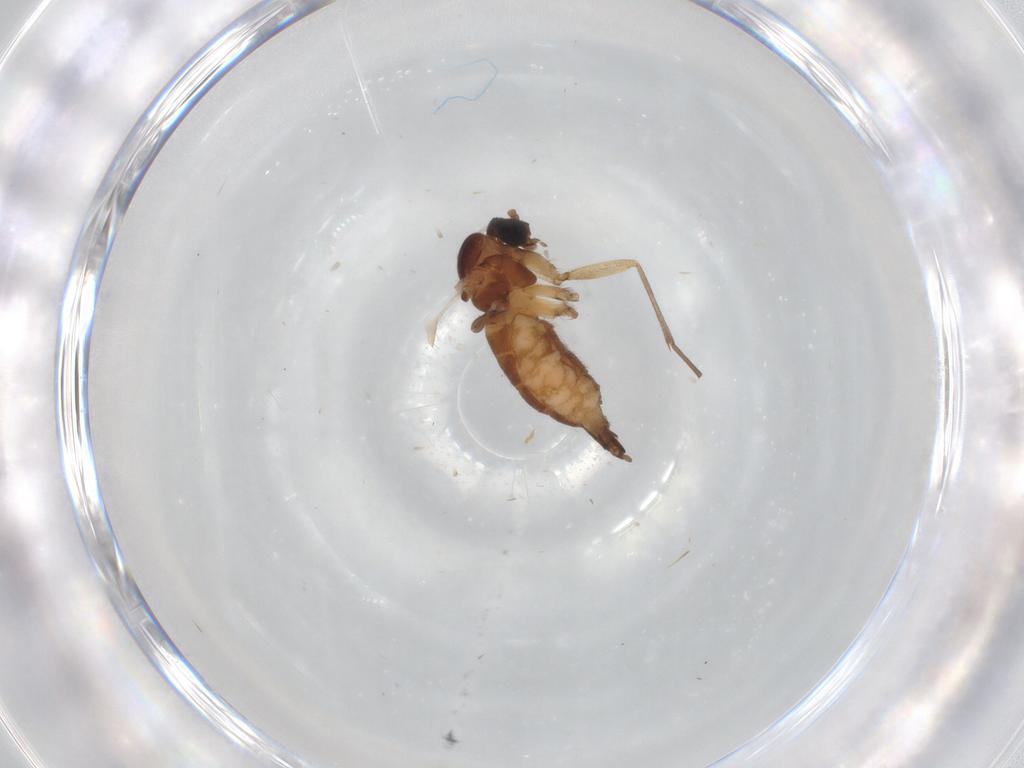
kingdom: Animalia
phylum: Arthropoda
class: Insecta
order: Diptera
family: Sciaridae
